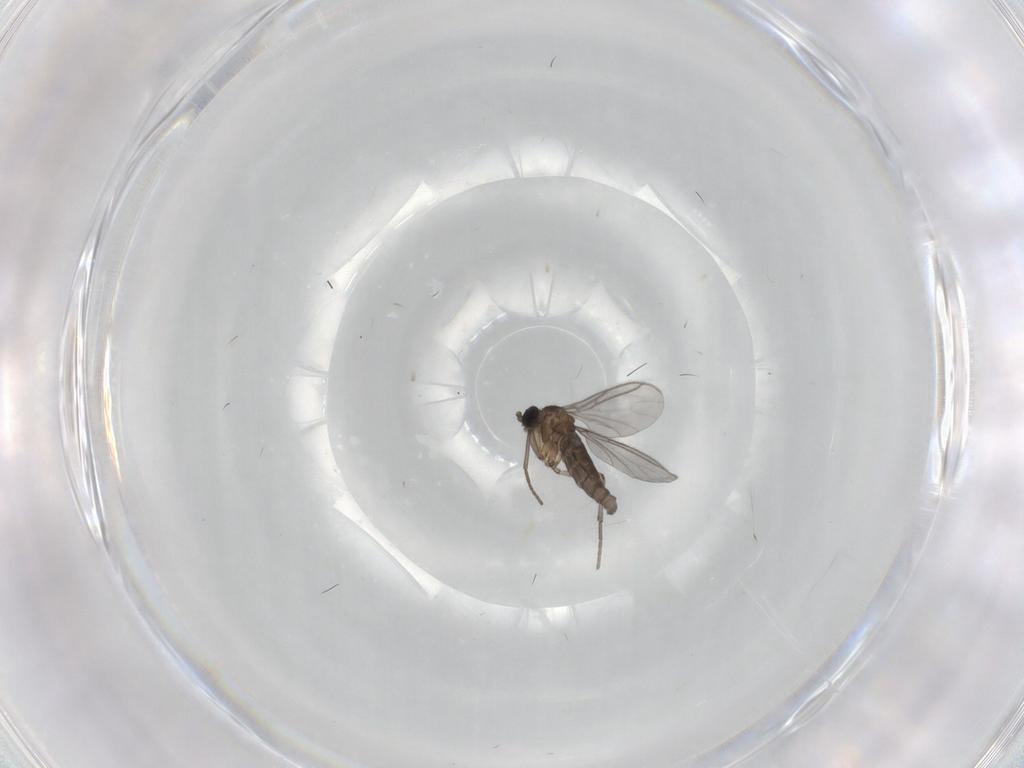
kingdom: Animalia
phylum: Arthropoda
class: Insecta
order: Diptera
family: Sciaridae
